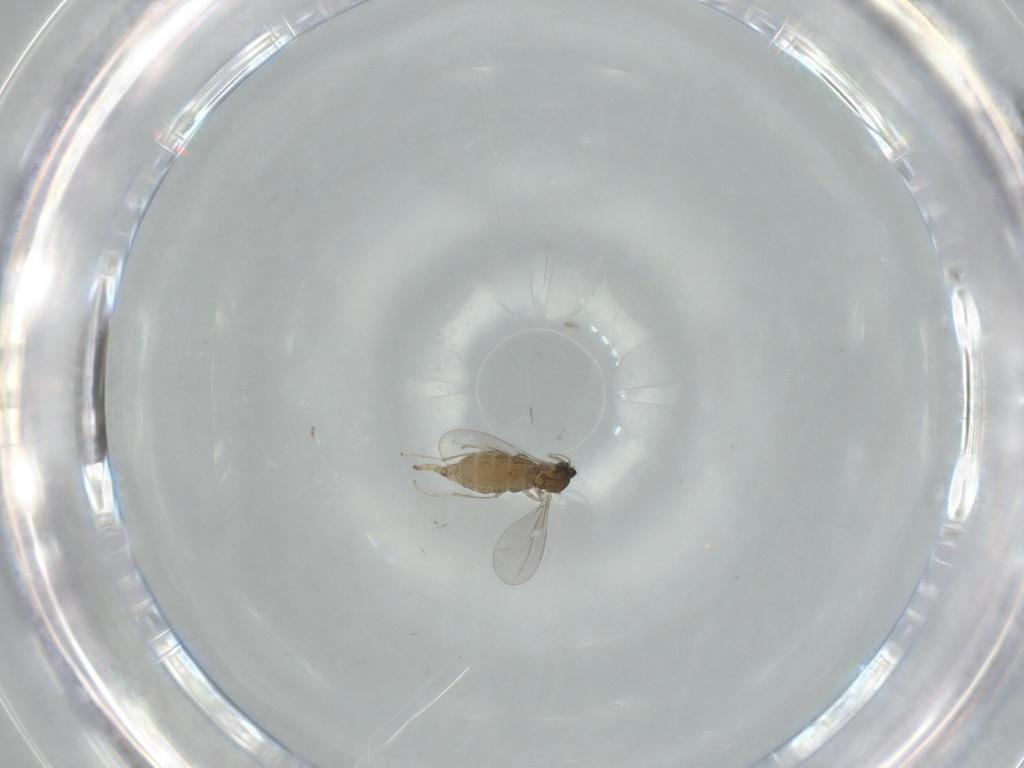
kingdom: Animalia
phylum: Arthropoda
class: Insecta
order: Diptera
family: Cecidomyiidae
